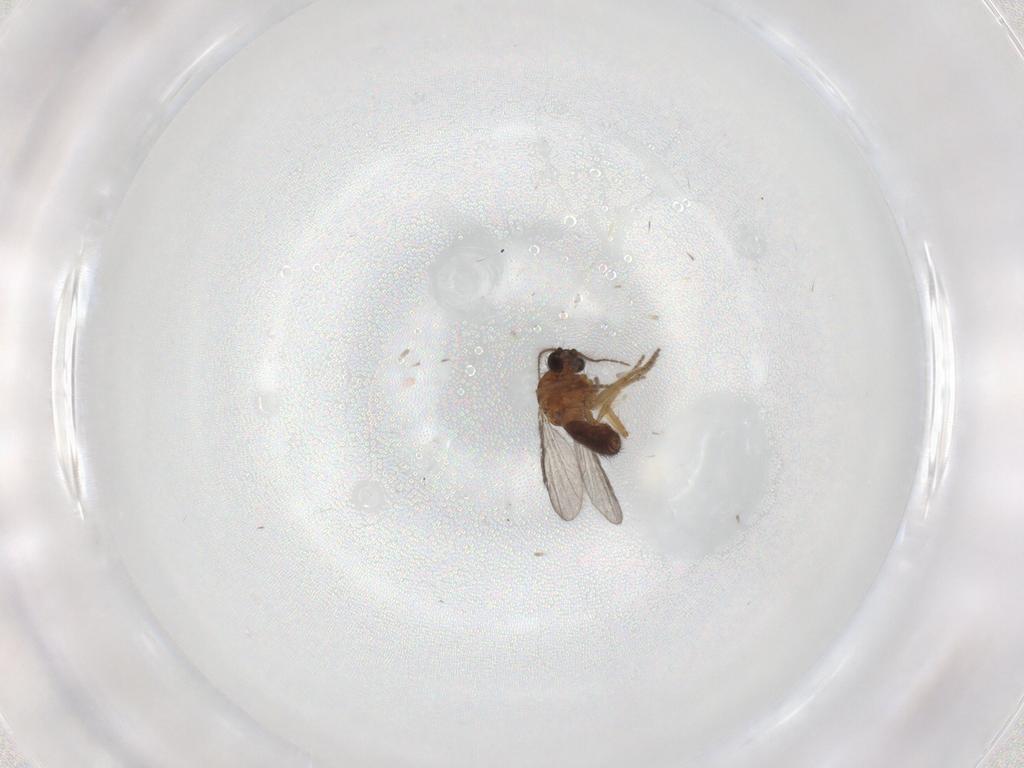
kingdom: Animalia
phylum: Arthropoda
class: Insecta
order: Diptera
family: Ceratopogonidae
